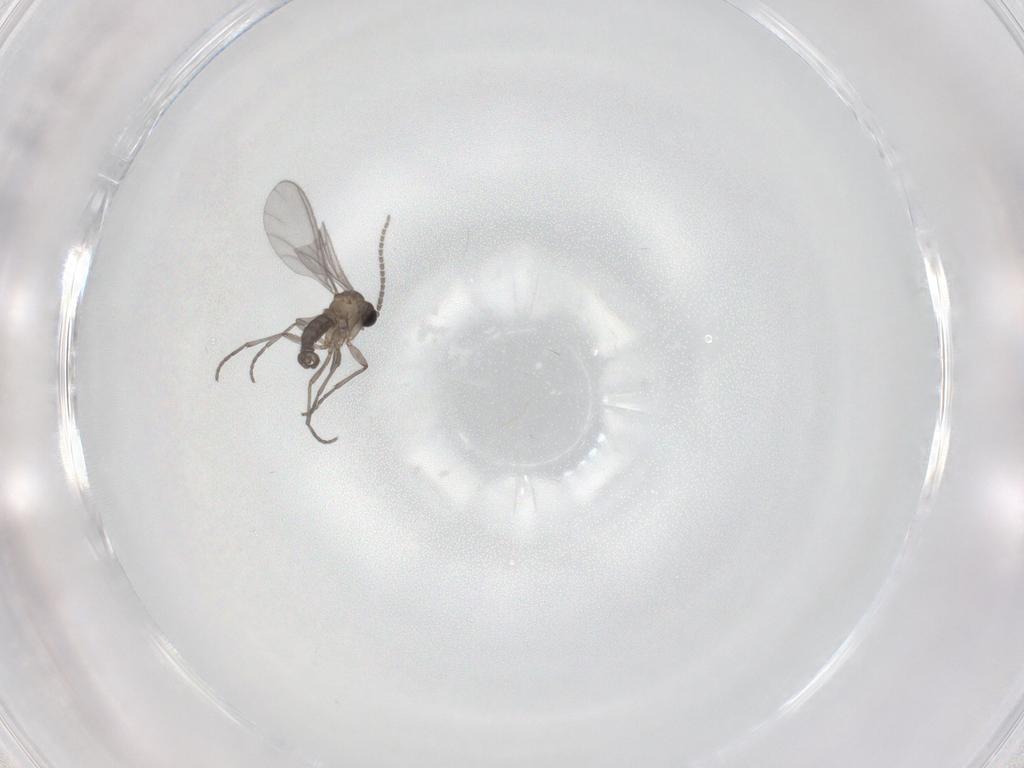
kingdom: Animalia
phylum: Arthropoda
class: Insecta
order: Diptera
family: Sciaridae
